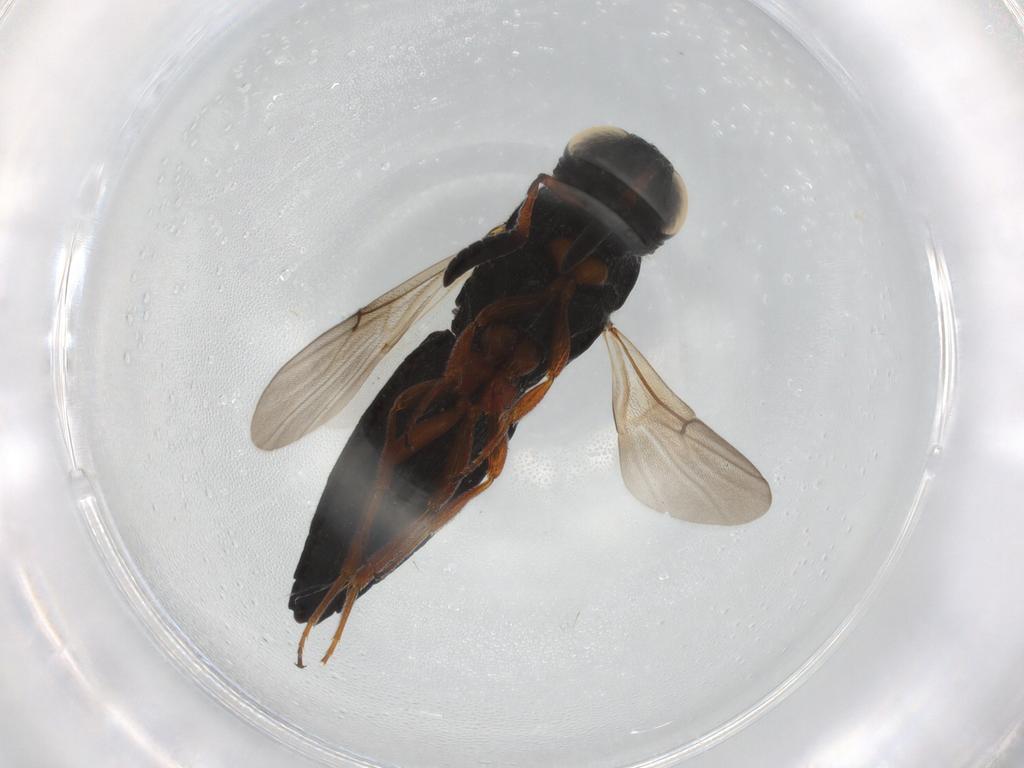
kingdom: Animalia
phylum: Arthropoda
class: Insecta
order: Hymenoptera
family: Scelionidae
